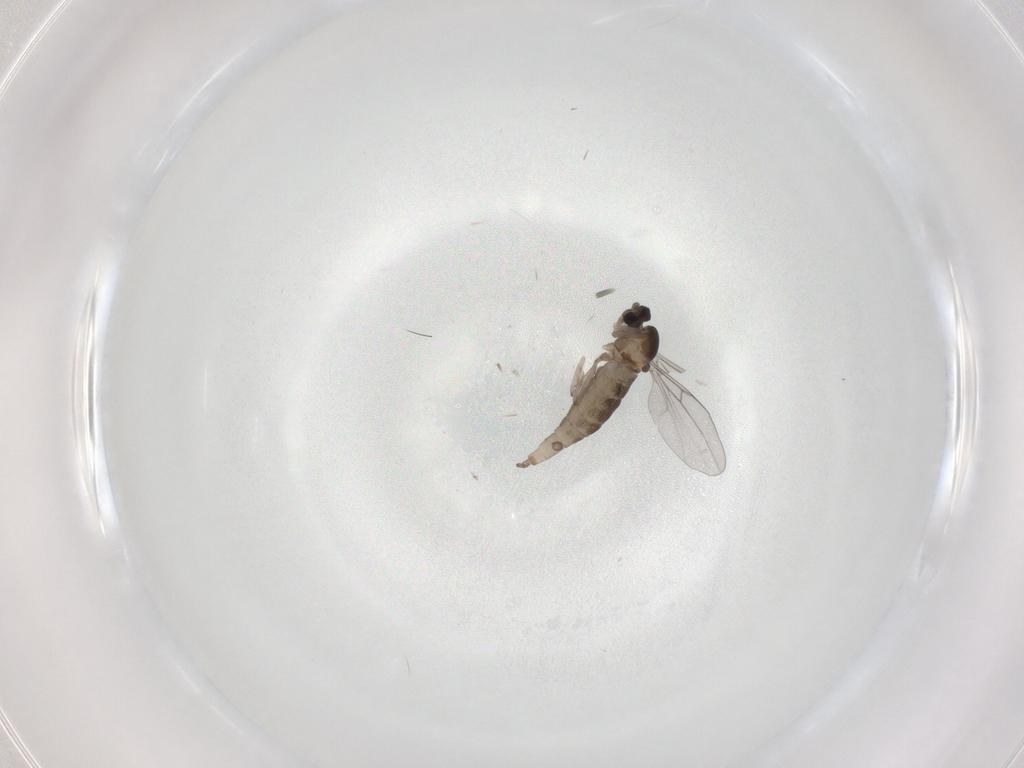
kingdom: Animalia
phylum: Arthropoda
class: Insecta
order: Diptera
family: Cecidomyiidae
